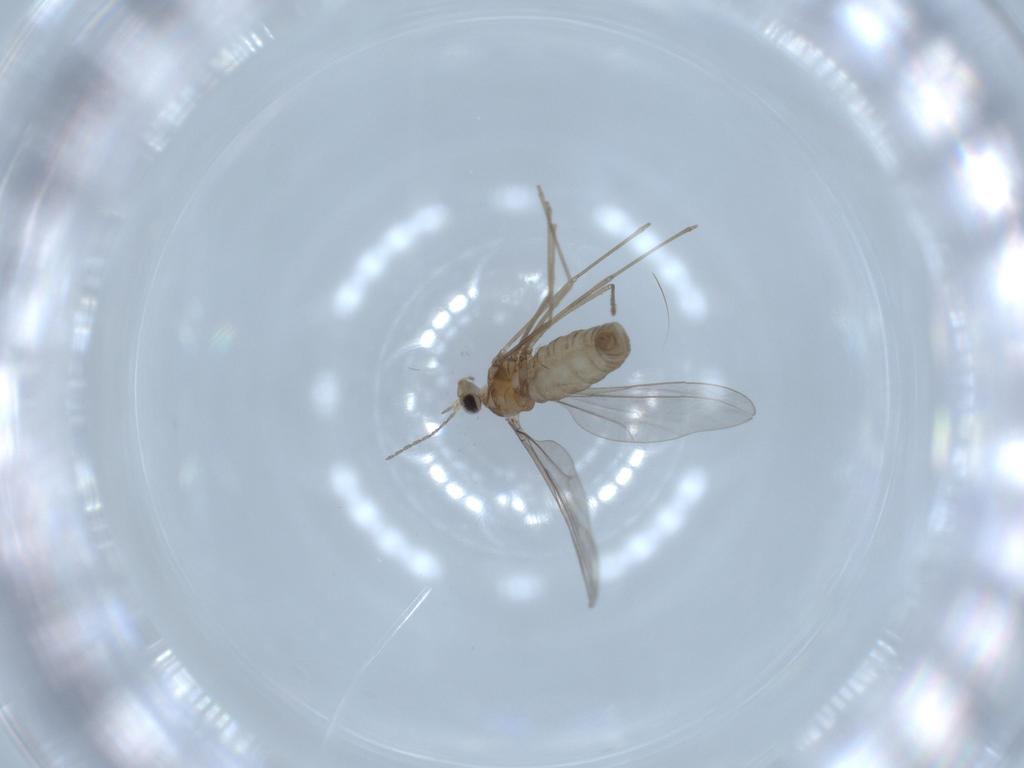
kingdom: Animalia
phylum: Arthropoda
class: Insecta
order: Diptera
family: Cecidomyiidae
